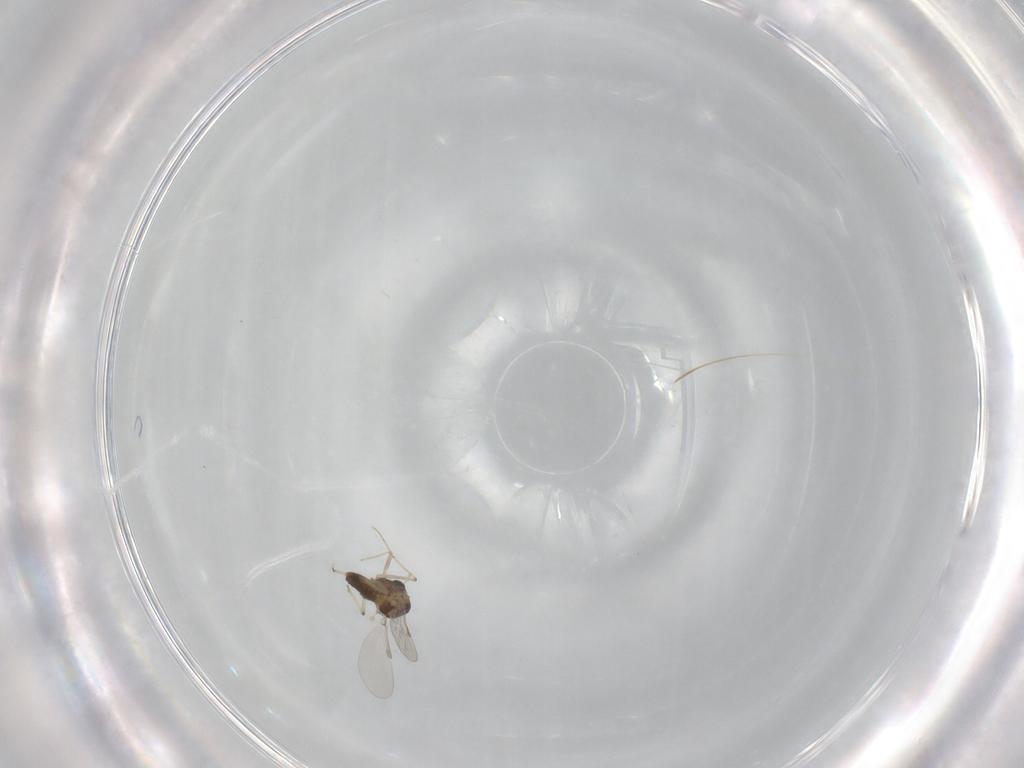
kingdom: Animalia
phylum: Arthropoda
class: Insecta
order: Diptera
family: Chironomidae
